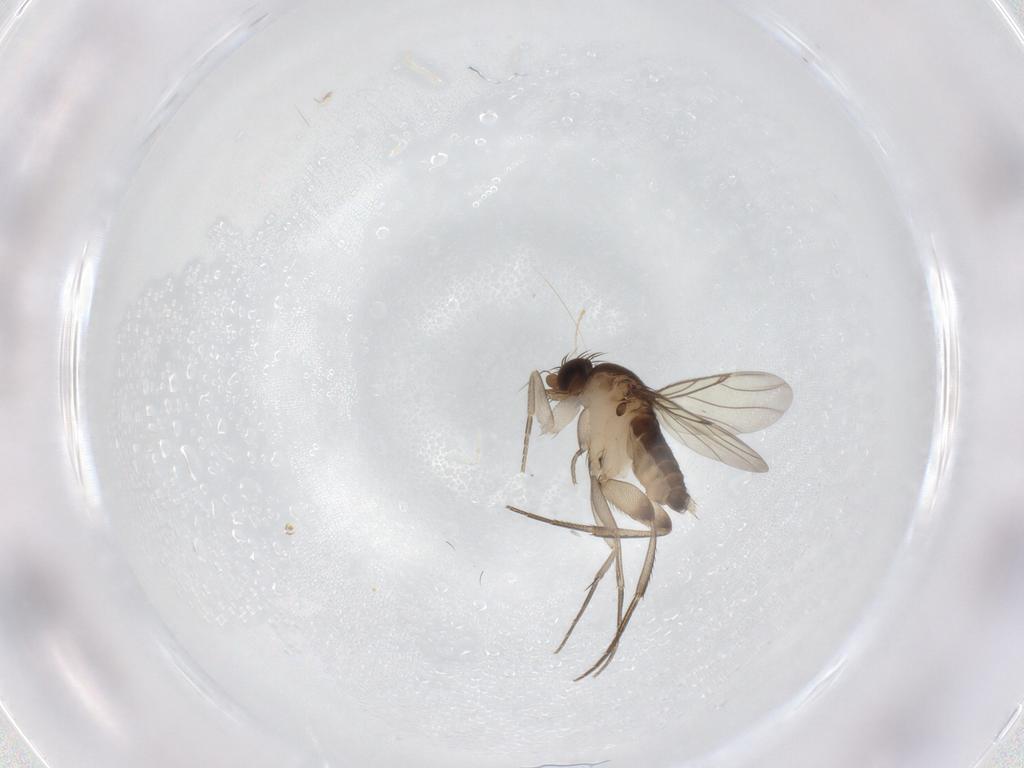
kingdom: Animalia
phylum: Arthropoda
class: Insecta
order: Diptera
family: Phoridae
